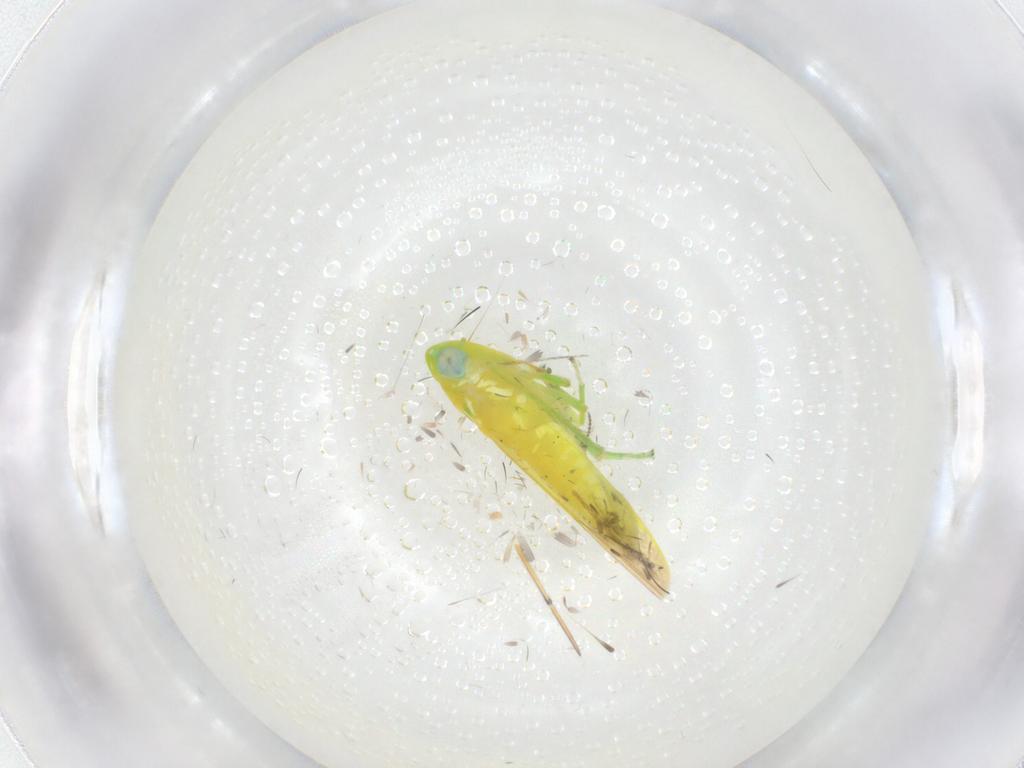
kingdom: Animalia
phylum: Arthropoda
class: Insecta
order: Hemiptera
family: Cicadellidae
